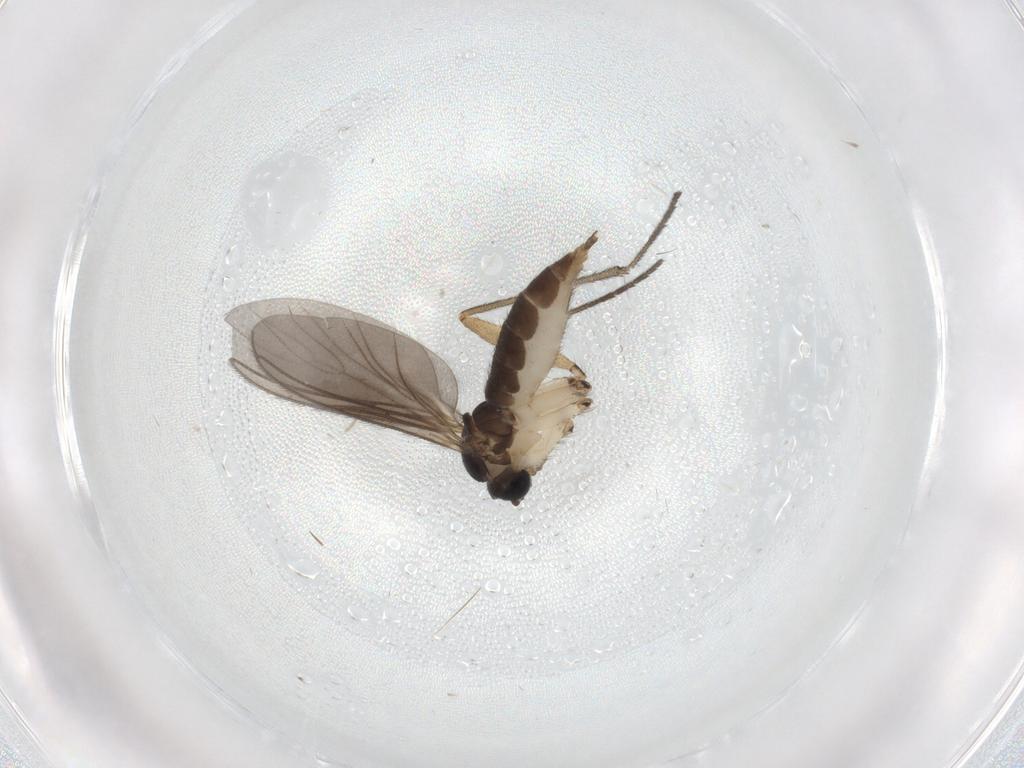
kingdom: Animalia
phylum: Arthropoda
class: Insecta
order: Diptera
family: Sciaridae
